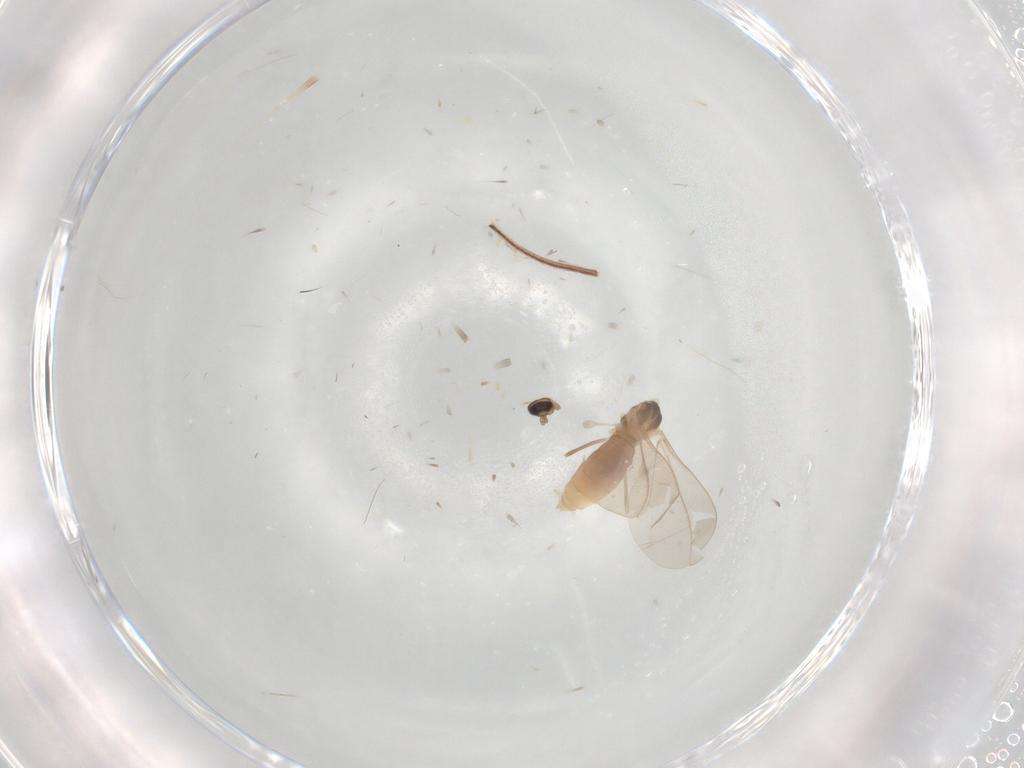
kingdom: Animalia
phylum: Arthropoda
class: Insecta
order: Diptera
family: Cecidomyiidae
